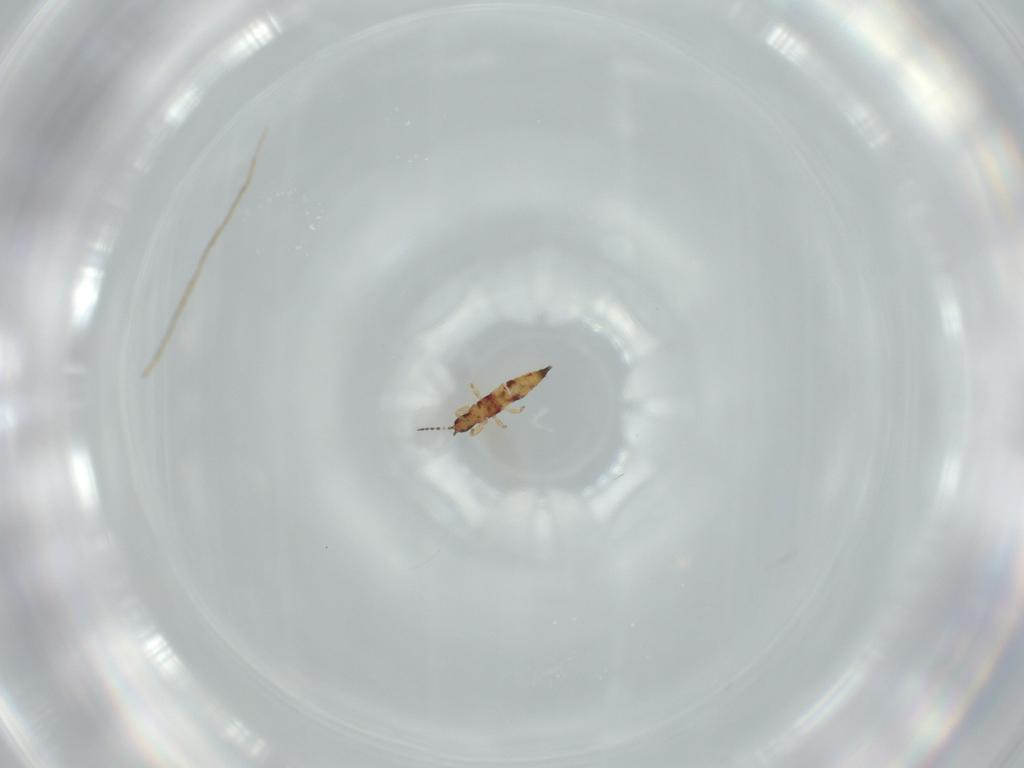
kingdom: Animalia
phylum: Arthropoda
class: Insecta
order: Thysanoptera
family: Phlaeothripidae
